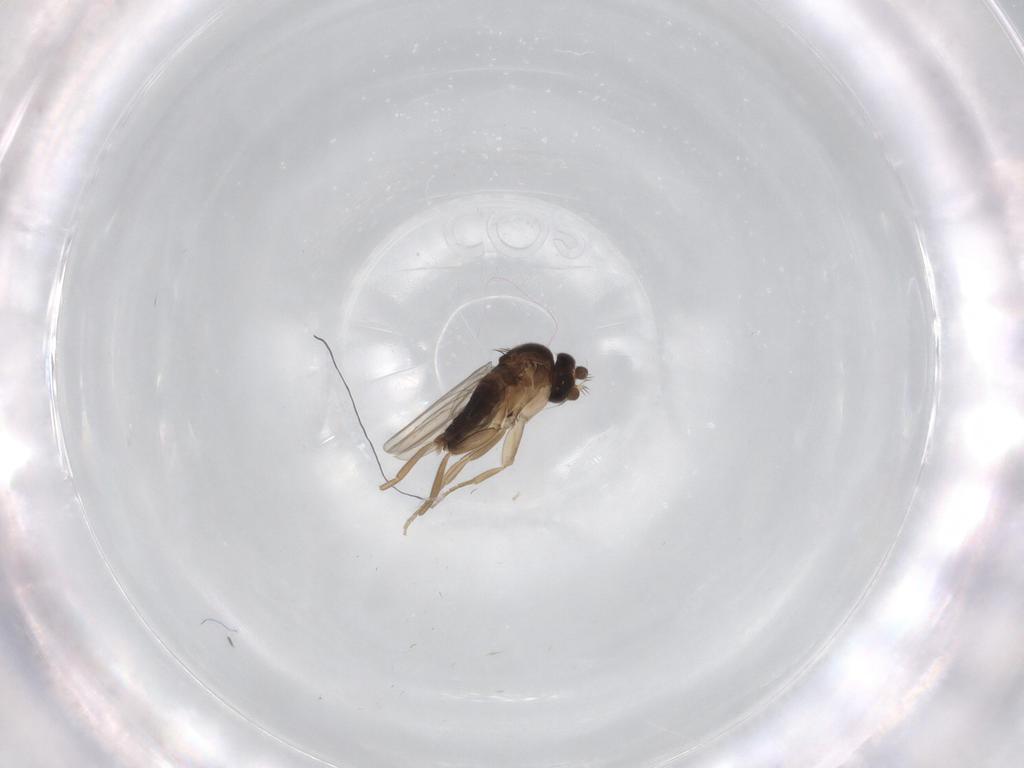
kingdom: Animalia
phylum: Arthropoda
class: Insecta
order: Diptera
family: Phoridae
